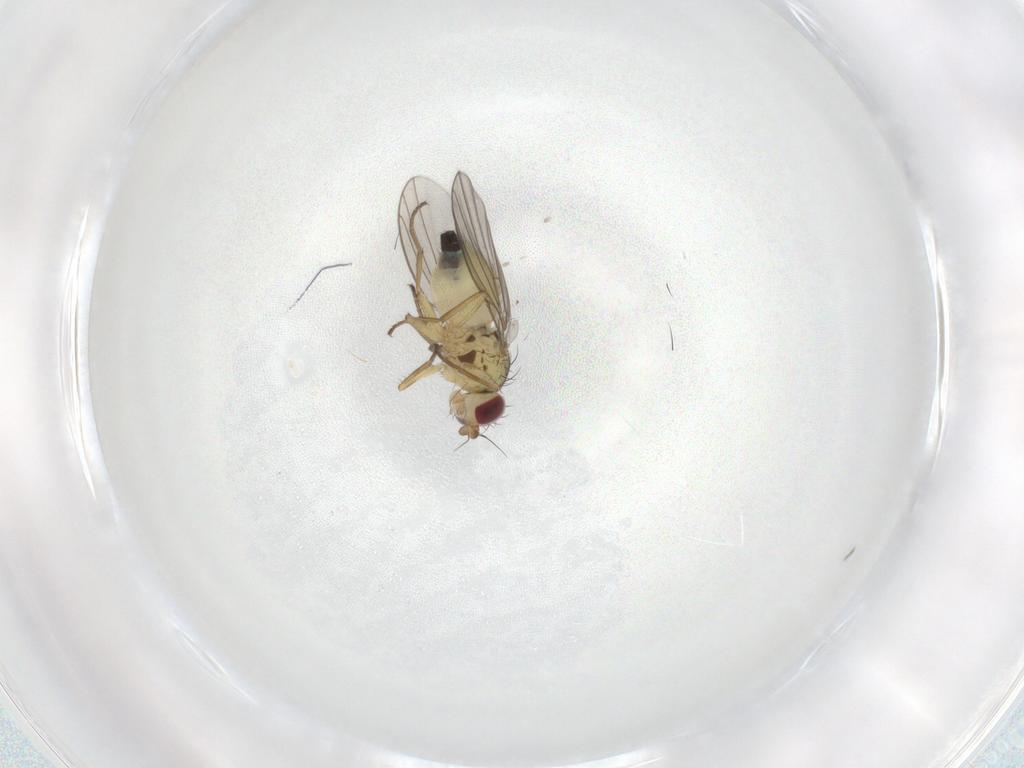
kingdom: Animalia
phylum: Arthropoda
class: Insecta
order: Diptera
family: Agromyzidae
